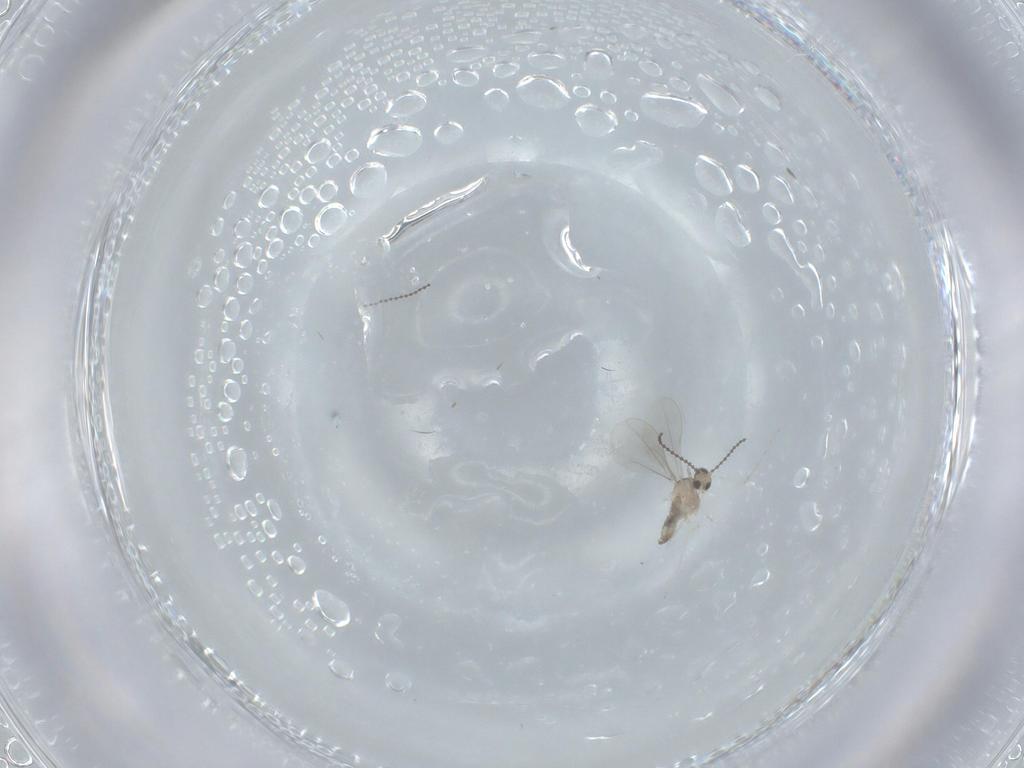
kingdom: Animalia
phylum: Arthropoda
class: Insecta
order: Diptera
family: Cecidomyiidae
